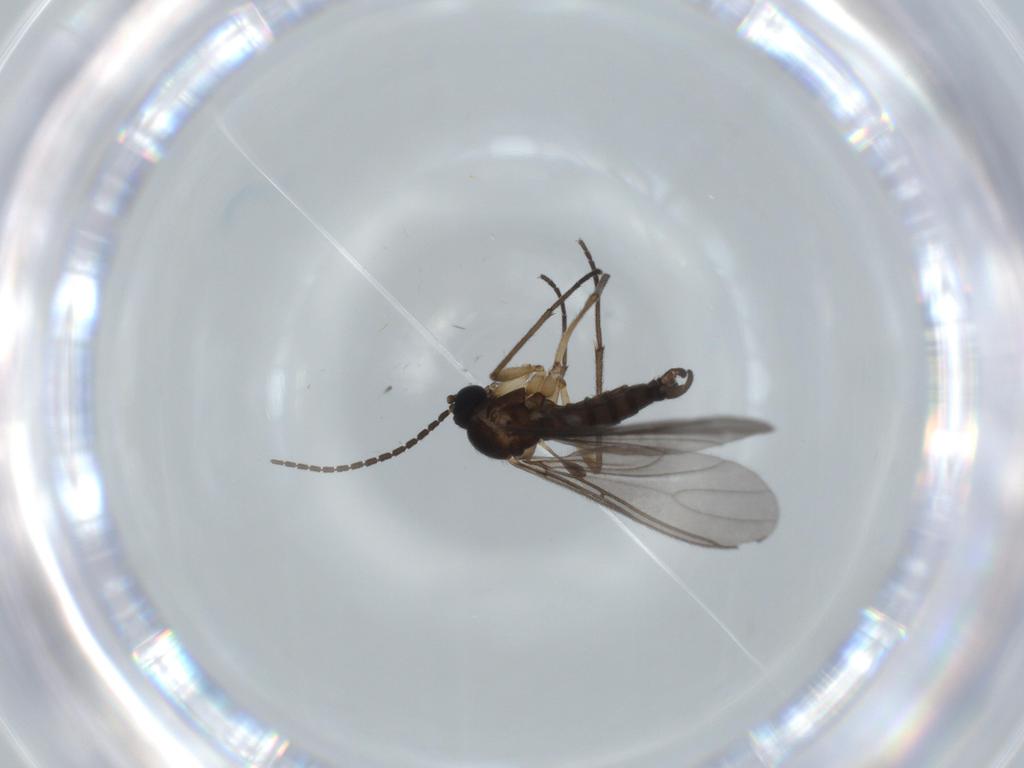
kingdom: Animalia
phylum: Arthropoda
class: Insecta
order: Diptera
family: Sciaridae
